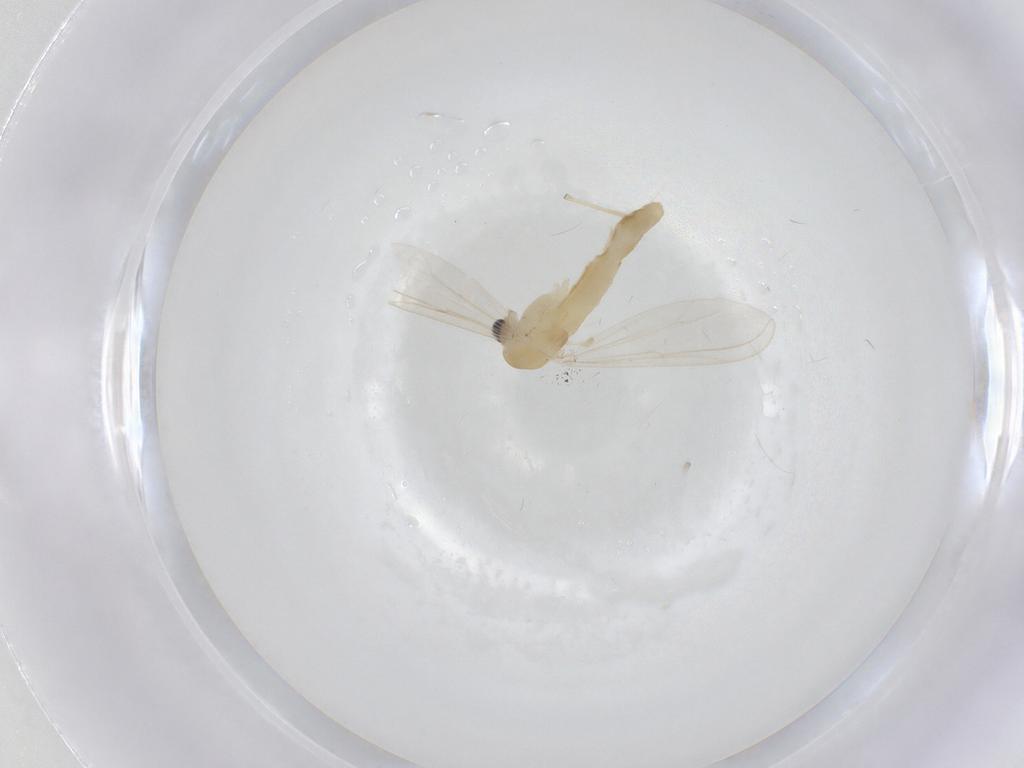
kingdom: Animalia
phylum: Arthropoda
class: Insecta
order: Diptera
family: Chironomidae
